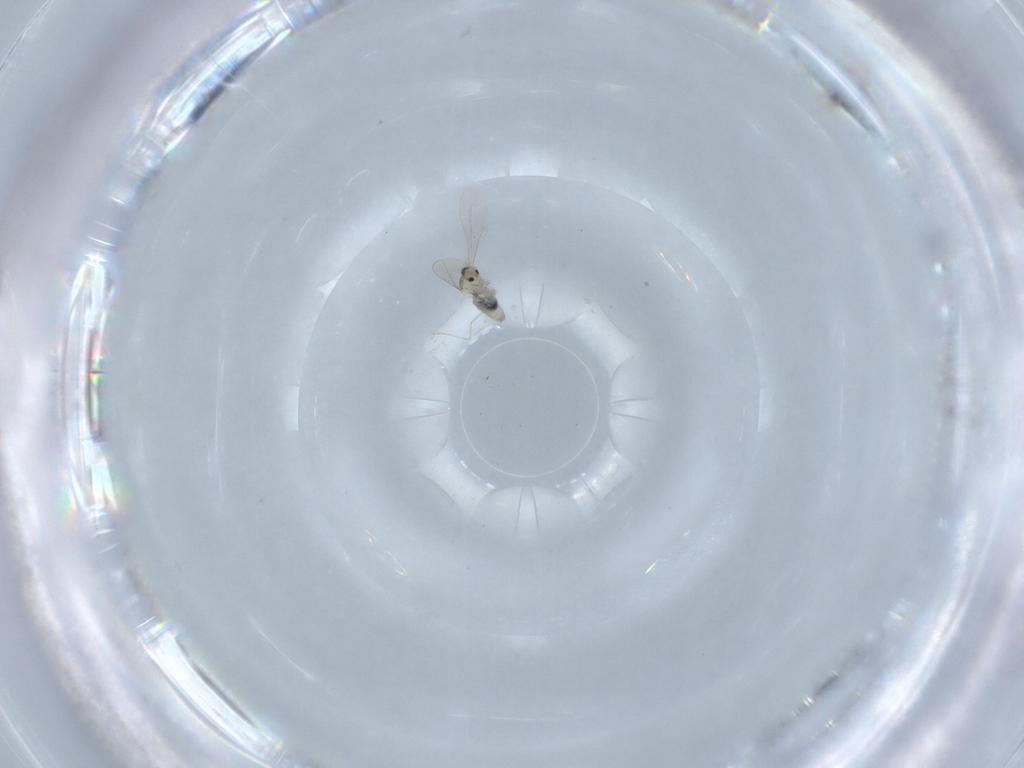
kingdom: Animalia
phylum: Arthropoda
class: Insecta
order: Diptera
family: Cecidomyiidae
